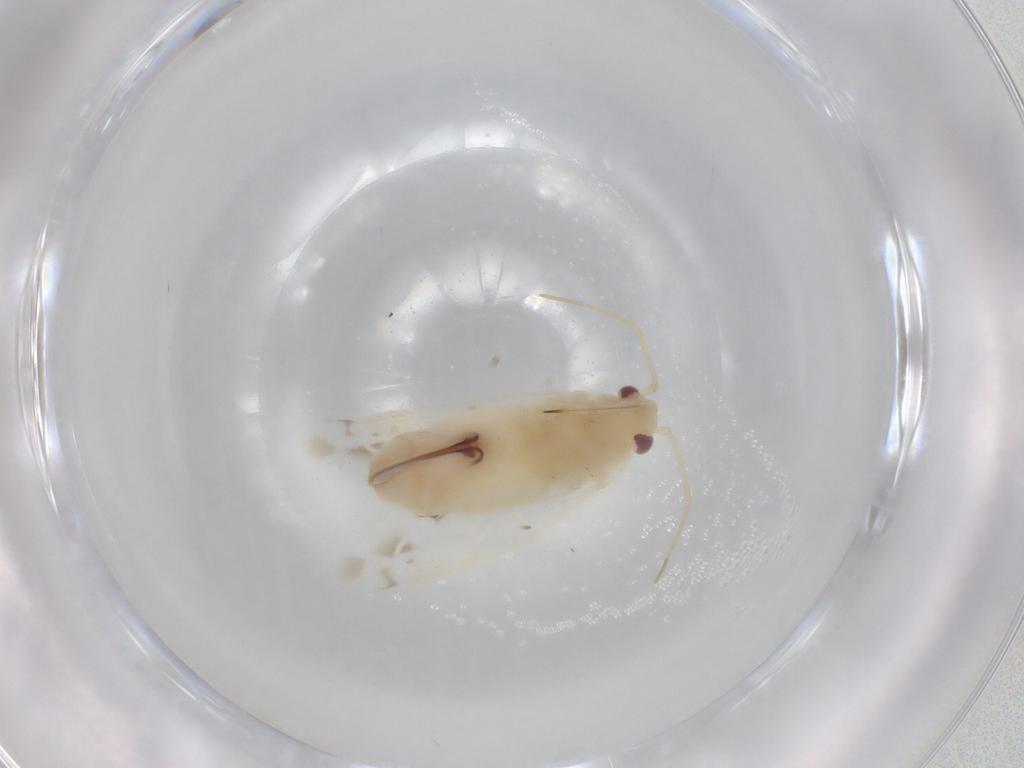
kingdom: Animalia
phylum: Arthropoda
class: Insecta
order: Hemiptera
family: Miridae
